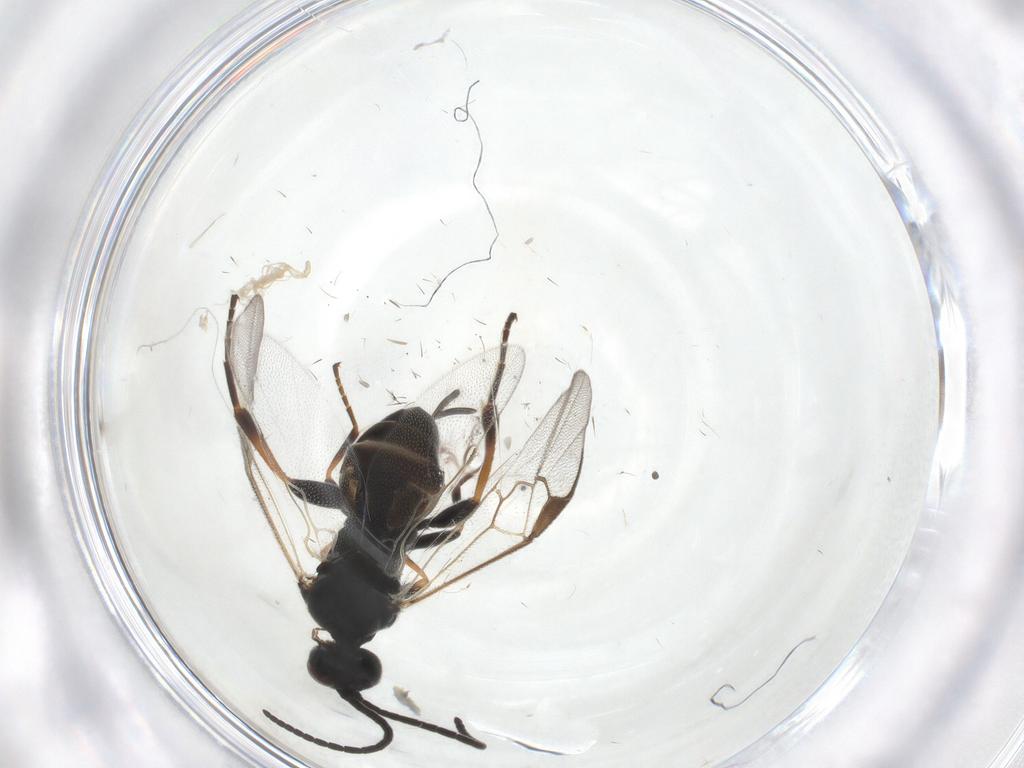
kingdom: Animalia
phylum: Arthropoda
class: Insecta
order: Hymenoptera
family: Braconidae
